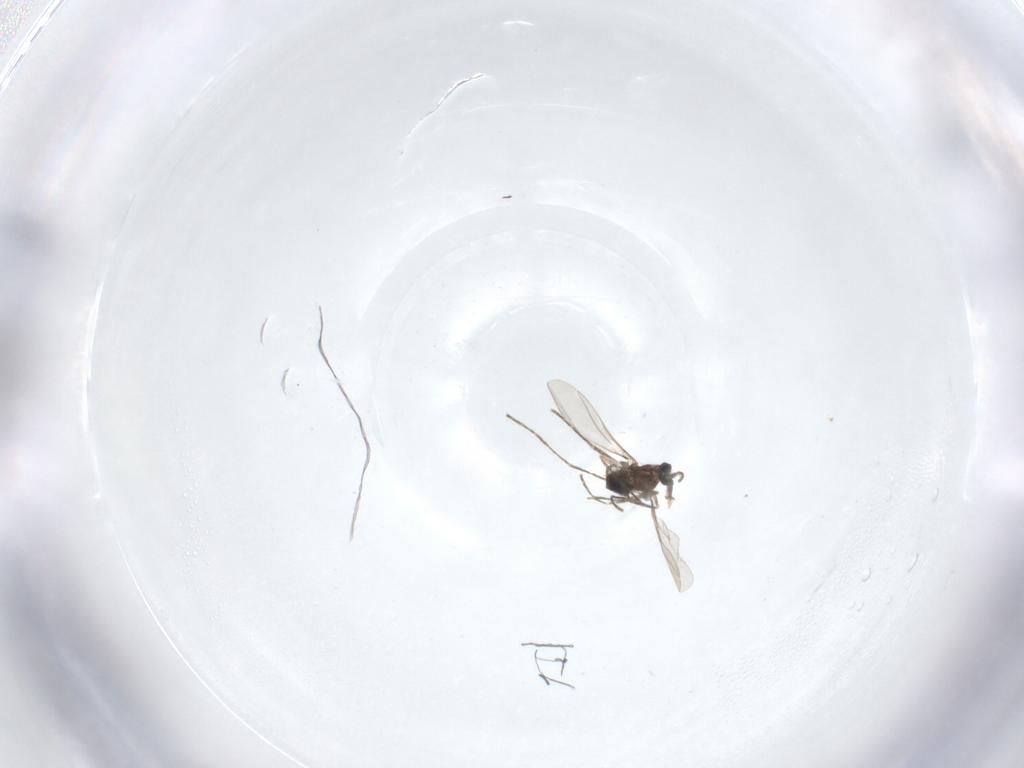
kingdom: Animalia
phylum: Arthropoda
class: Insecta
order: Diptera
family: Cecidomyiidae
